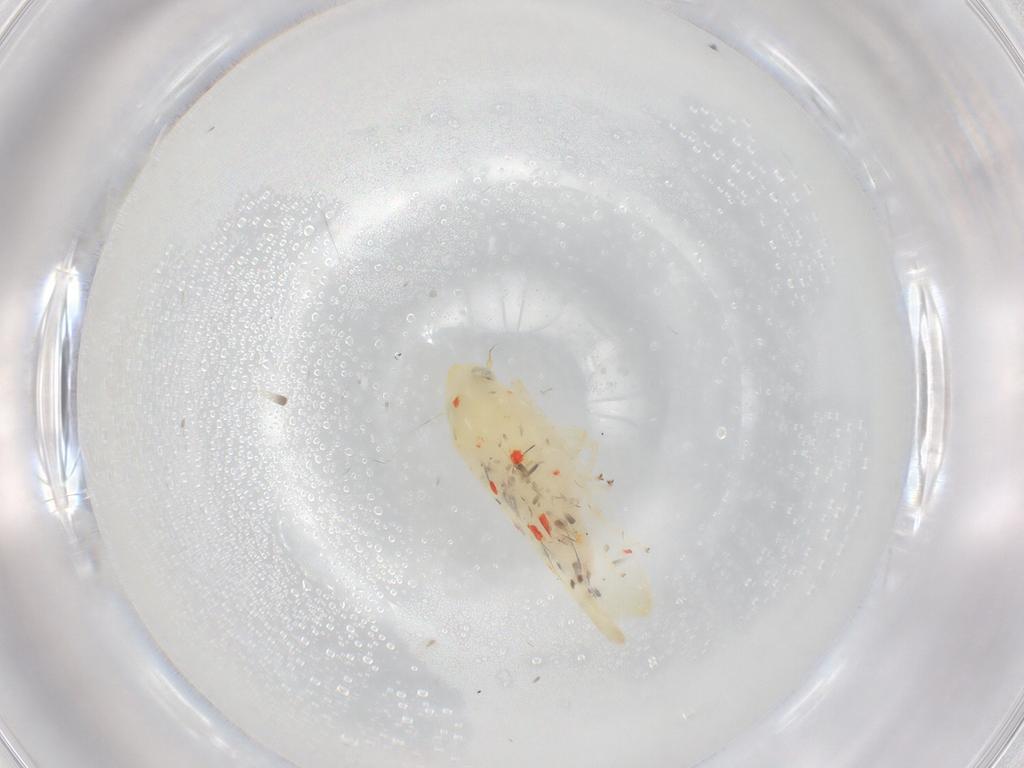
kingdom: Animalia
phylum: Arthropoda
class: Insecta
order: Hemiptera
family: Cicadellidae
